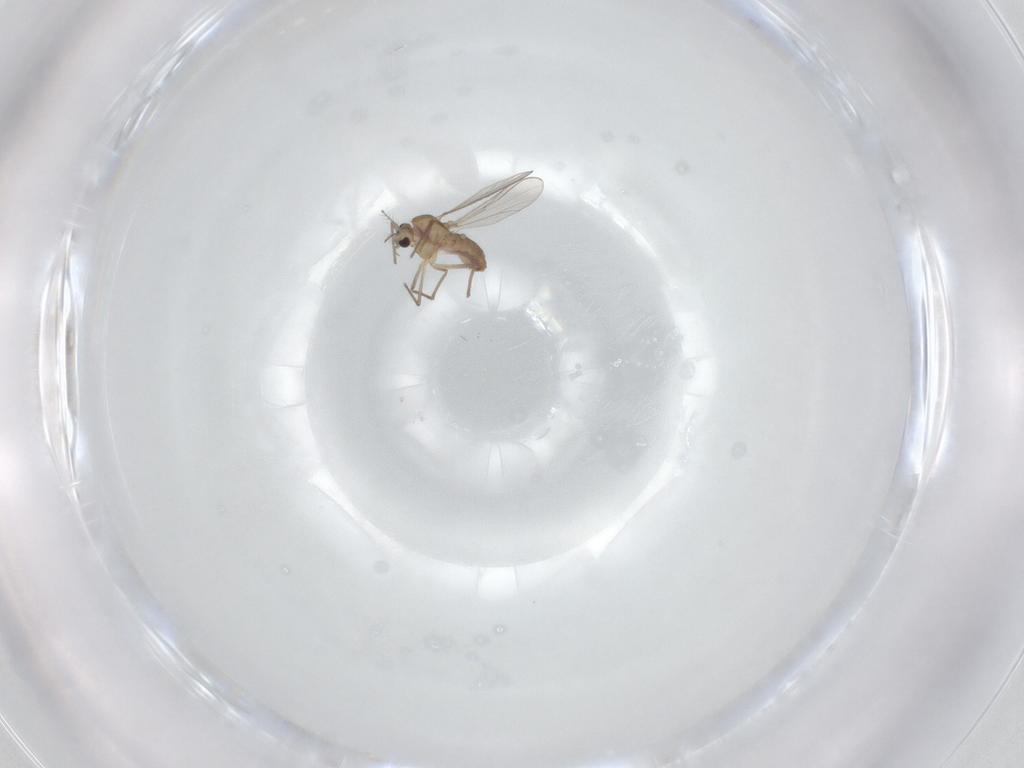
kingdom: Animalia
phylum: Arthropoda
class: Insecta
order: Diptera
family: Chironomidae
